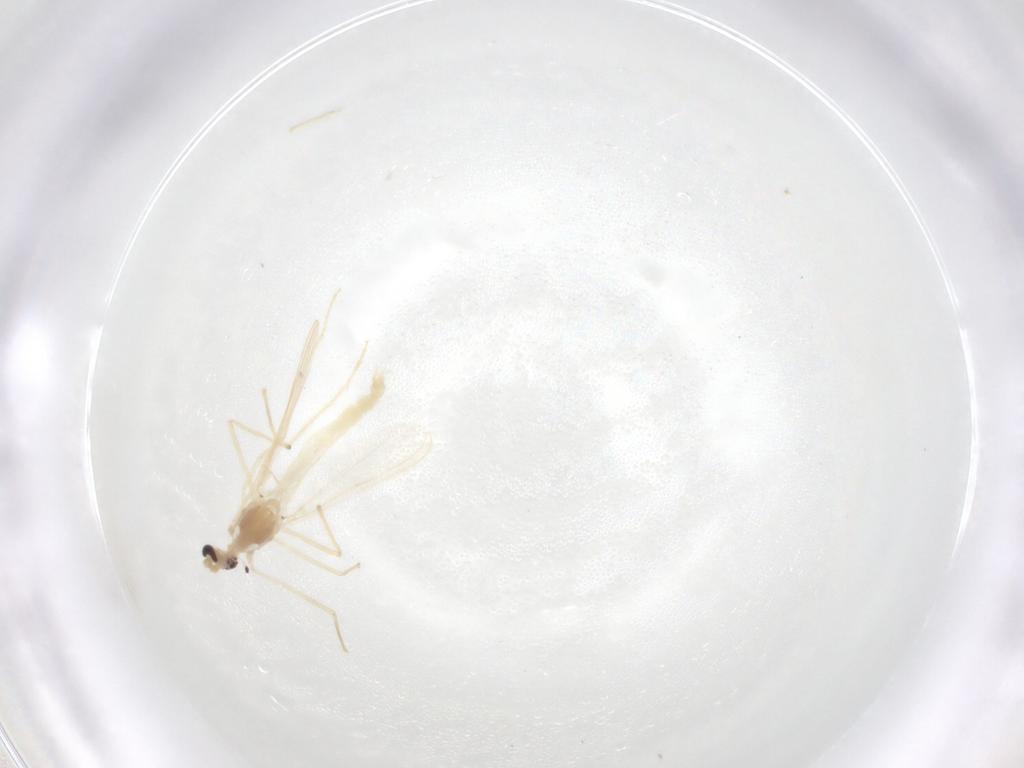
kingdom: Animalia
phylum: Arthropoda
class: Insecta
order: Diptera
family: Chironomidae
